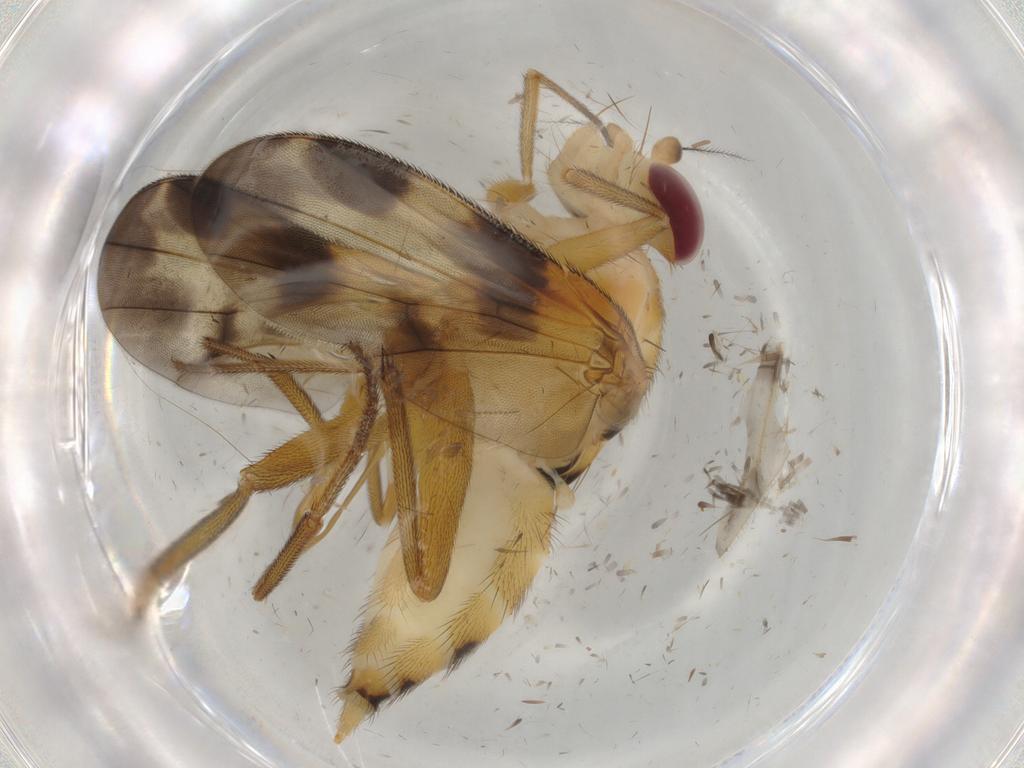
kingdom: Animalia
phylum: Arthropoda
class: Insecta
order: Diptera
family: Clusiidae
